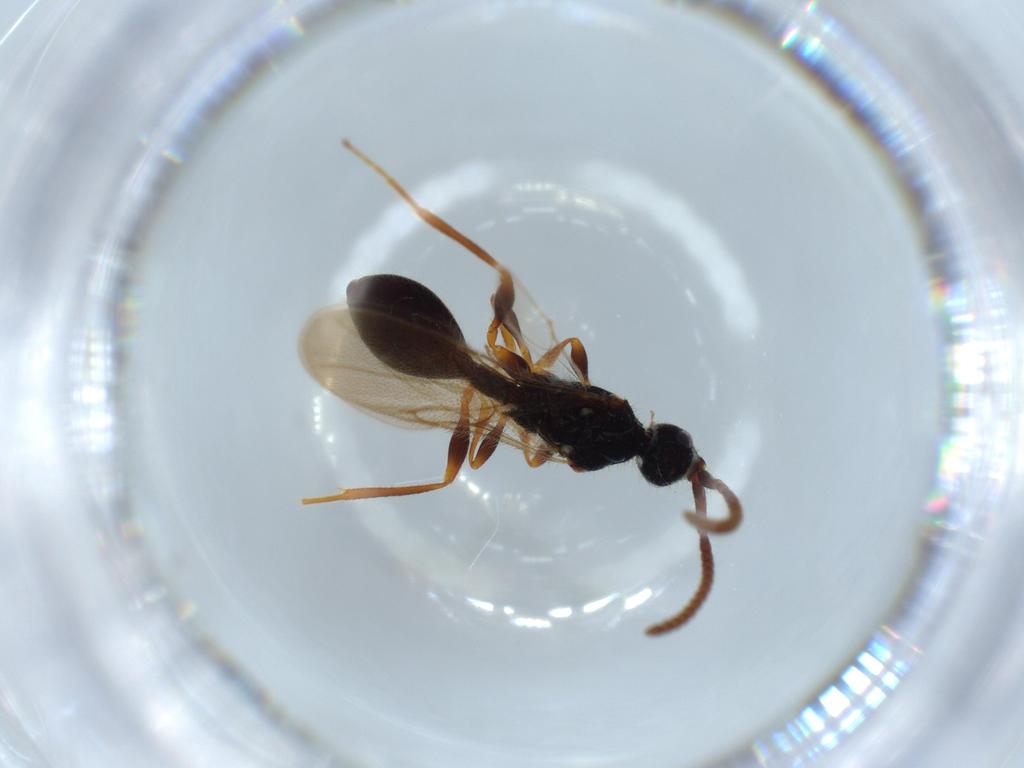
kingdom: Animalia
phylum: Arthropoda
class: Insecta
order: Hymenoptera
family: Diapriidae
